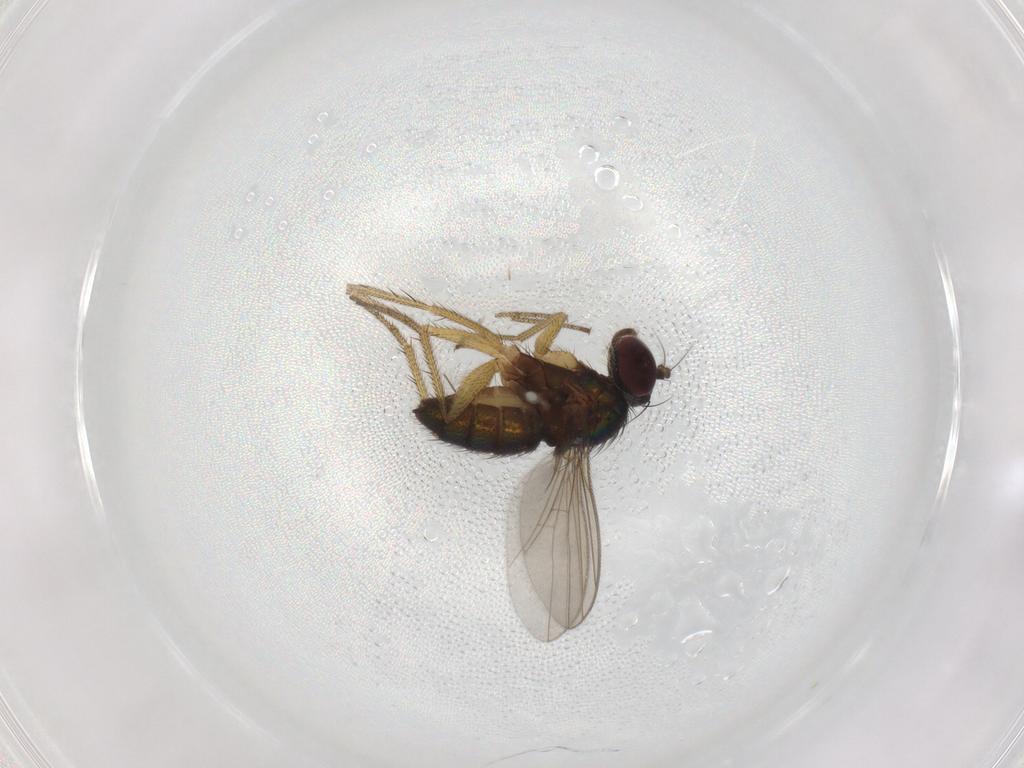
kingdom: Animalia
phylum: Arthropoda
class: Insecta
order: Diptera
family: Dolichopodidae
